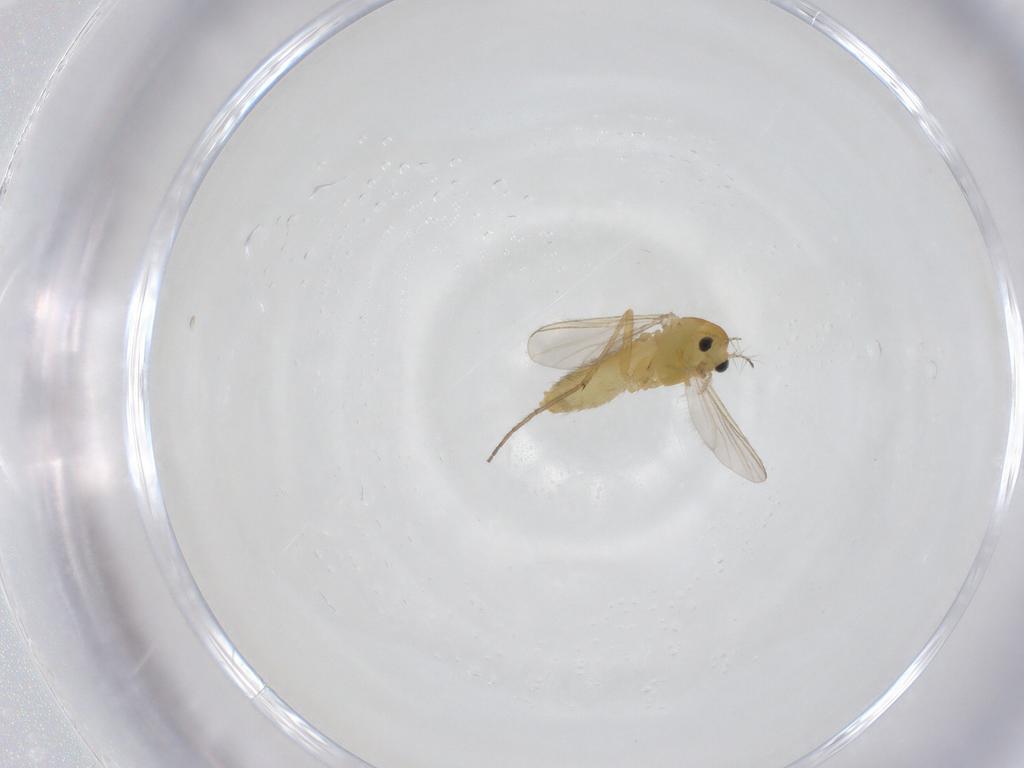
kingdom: Animalia
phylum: Arthropoda
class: Insecta
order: Diptera
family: Chironomidae
